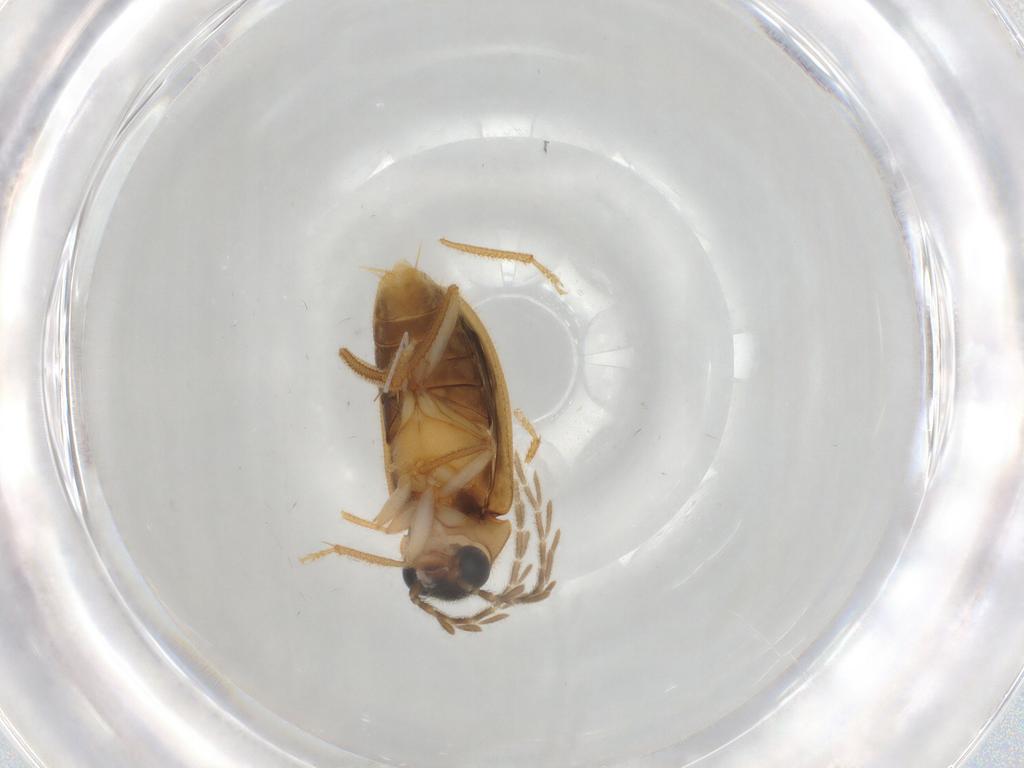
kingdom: Animalia
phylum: Arthropoda
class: Insecta
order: Coleoptera
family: Ptilodactylidae
